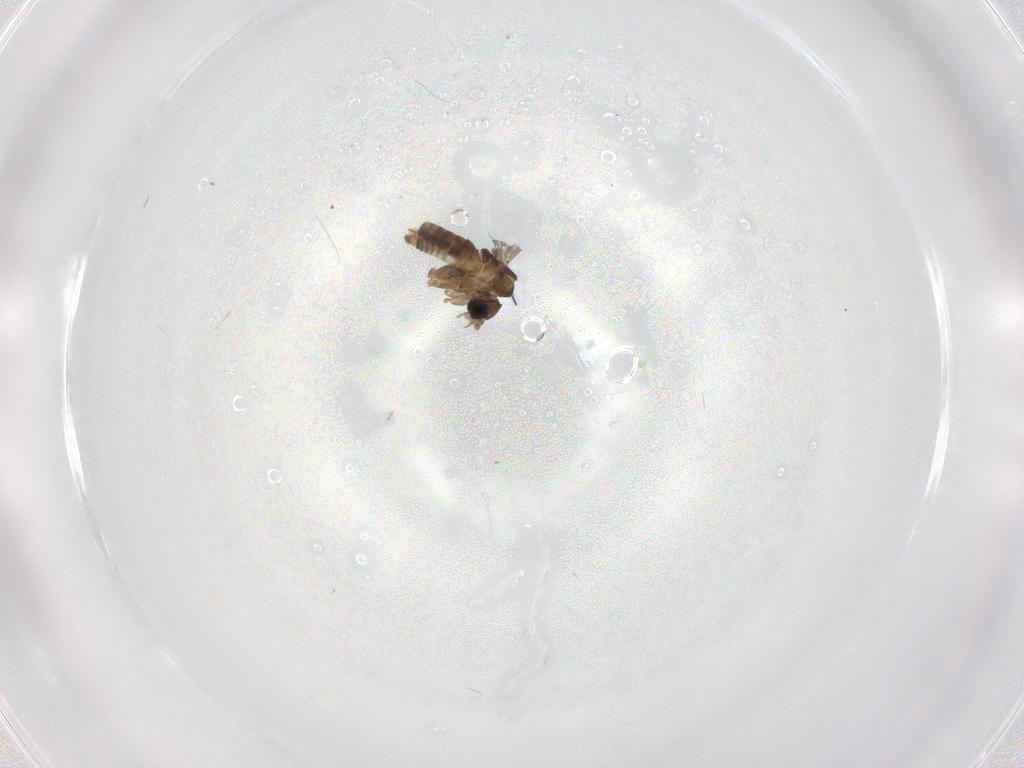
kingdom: Animalia
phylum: Arthropoda
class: Insecta
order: Diptera
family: Psychodidae
